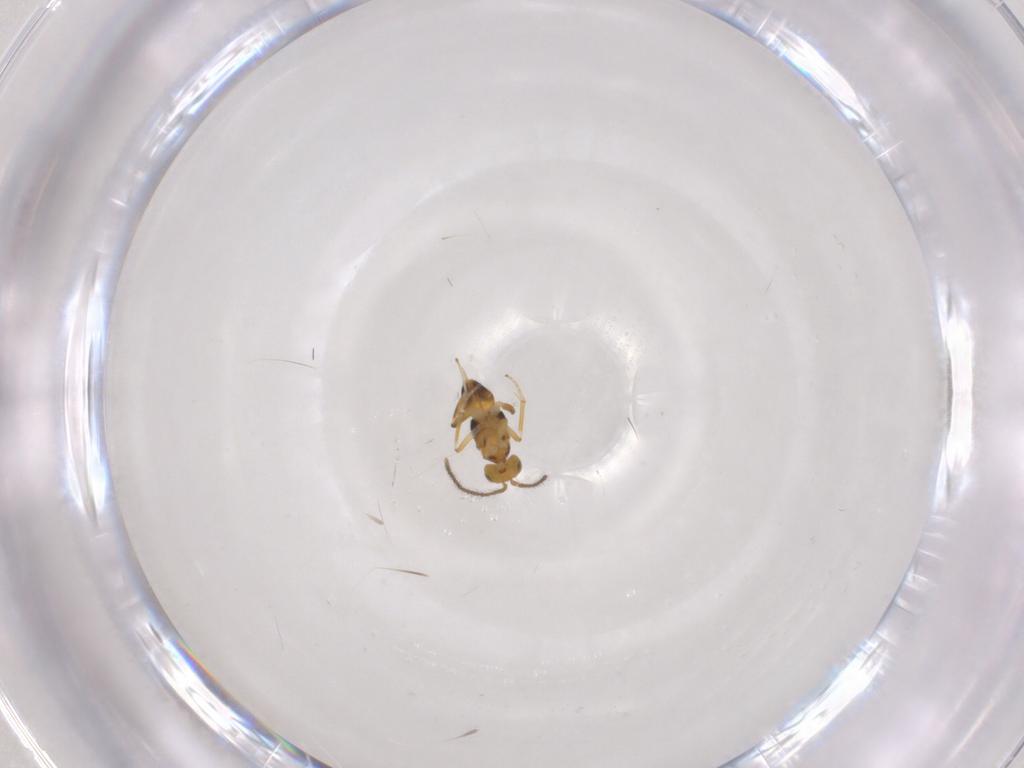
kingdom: Animalia
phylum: Arthropoda
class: Insecta
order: Hymenoptera
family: Encyrtidae
